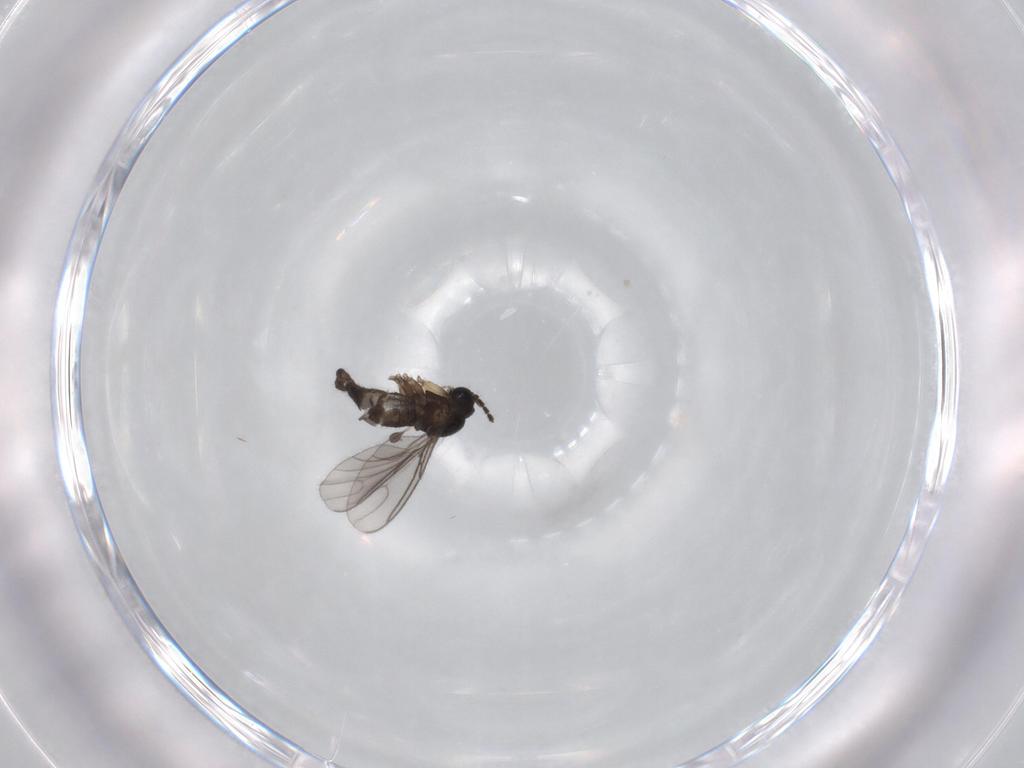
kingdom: Animalia
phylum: Arthropoda
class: Insecta
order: Diptera
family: Sciaridae
